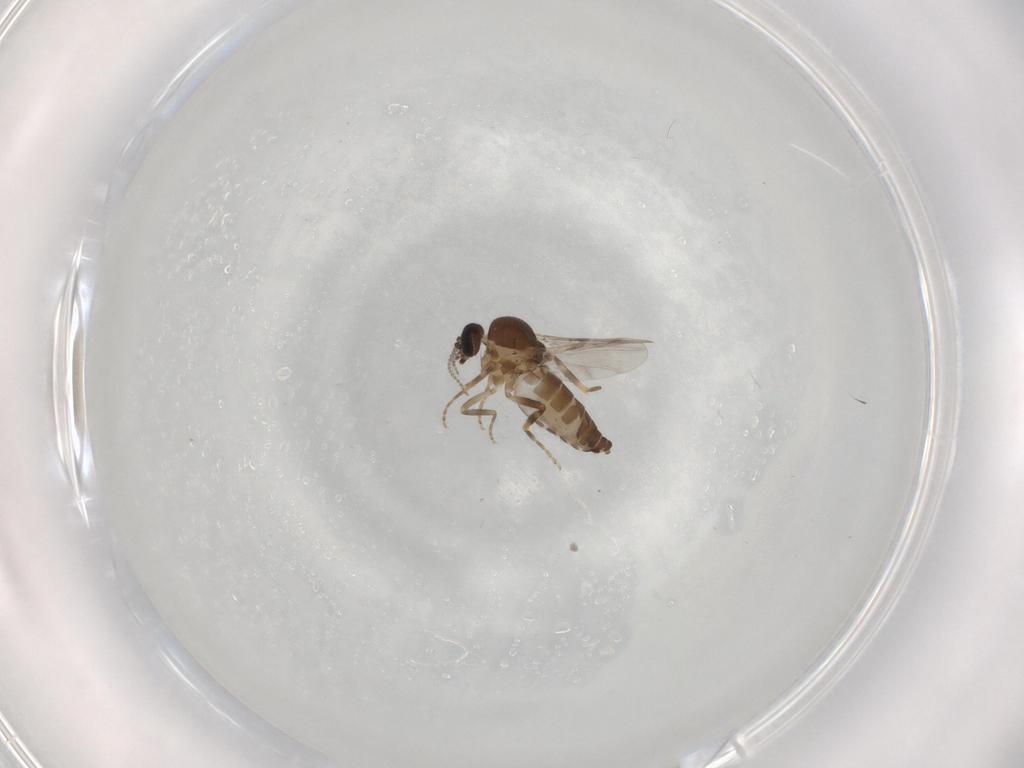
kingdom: Animalia
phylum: Arthropoda
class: Insecta
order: Diptera
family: Ceratopogonidae
